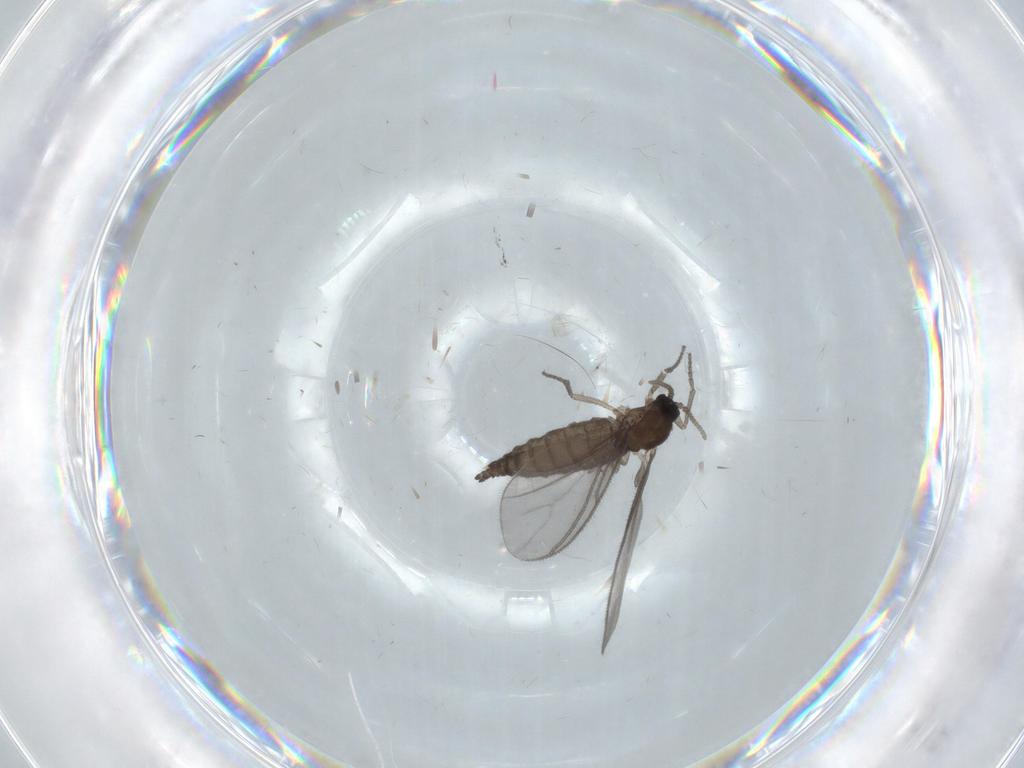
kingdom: Animalia
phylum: Arthropoda
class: Insecta
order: Diptera
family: Sciaridae
